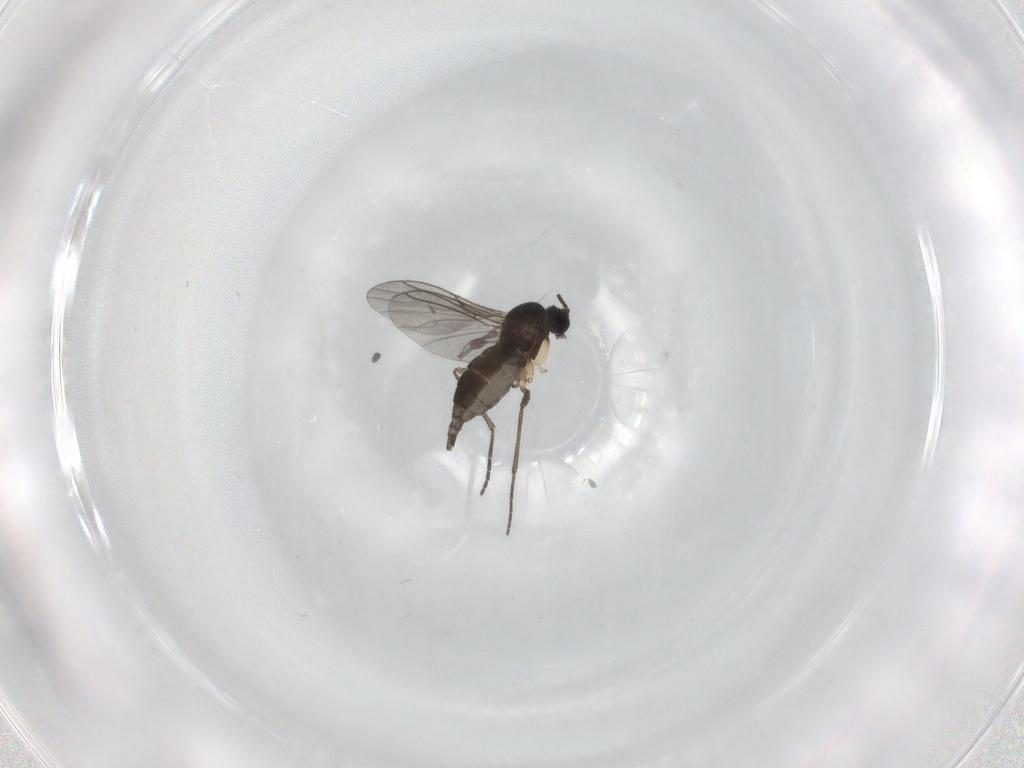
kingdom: Animalia
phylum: Arthropoda
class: Insecta
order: Diptera
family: Sciaridae
